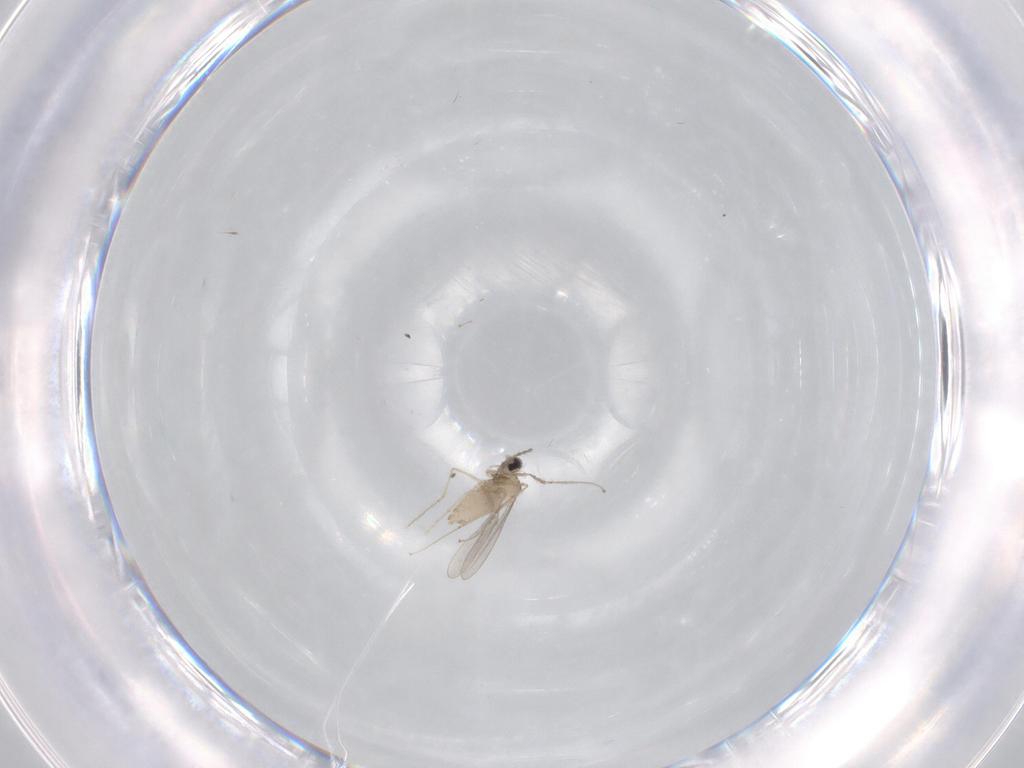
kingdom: Animalia
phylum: Arthropoda
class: Insecta
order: Diptera
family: Cecidomyiidae
